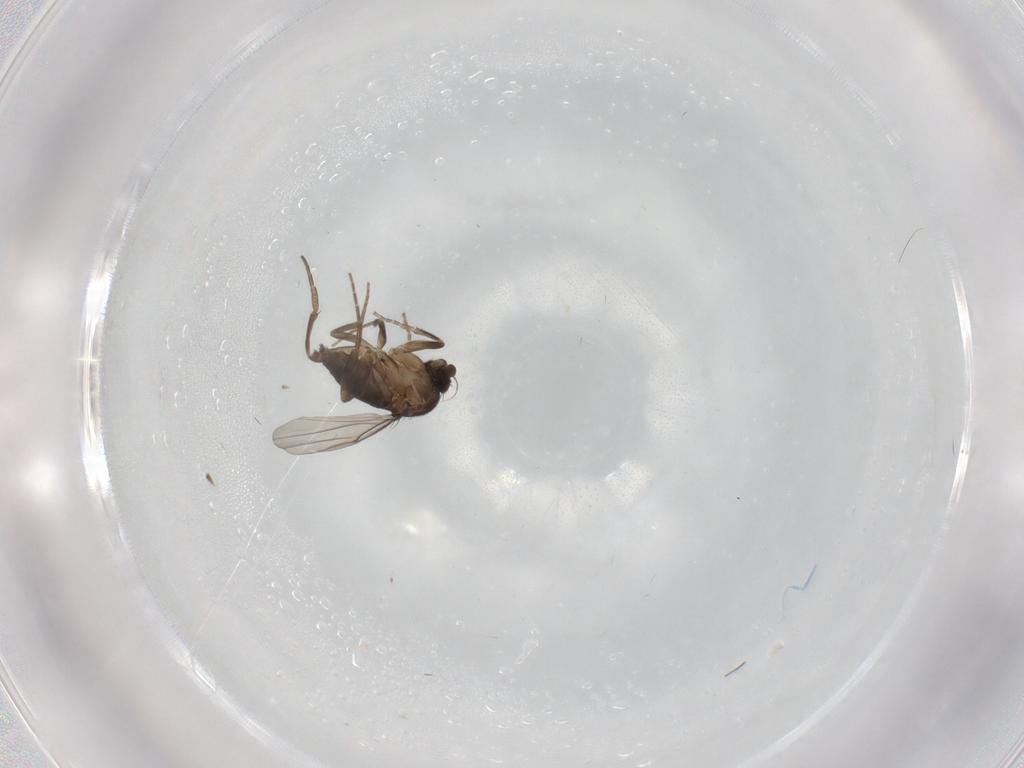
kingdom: Animalia
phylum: Arthropoda
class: Insecta
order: Diptera
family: Phoridae
